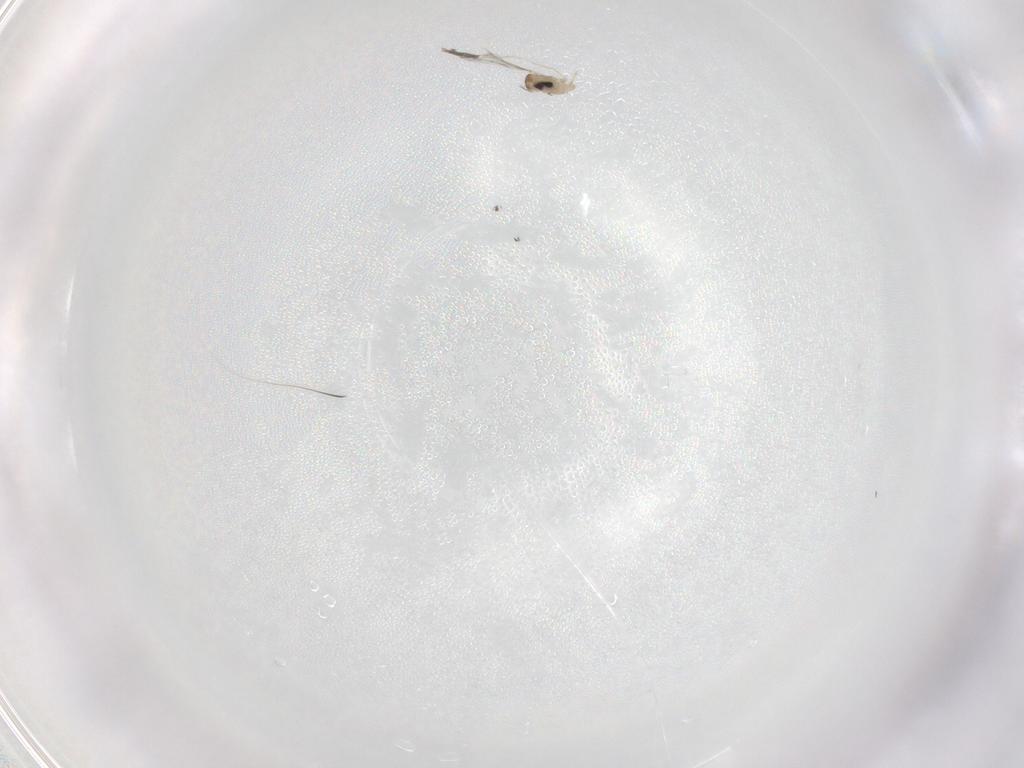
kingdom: Animalia
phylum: Arthropoda
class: Insecta
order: Diptera
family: Cecidomyiidae
